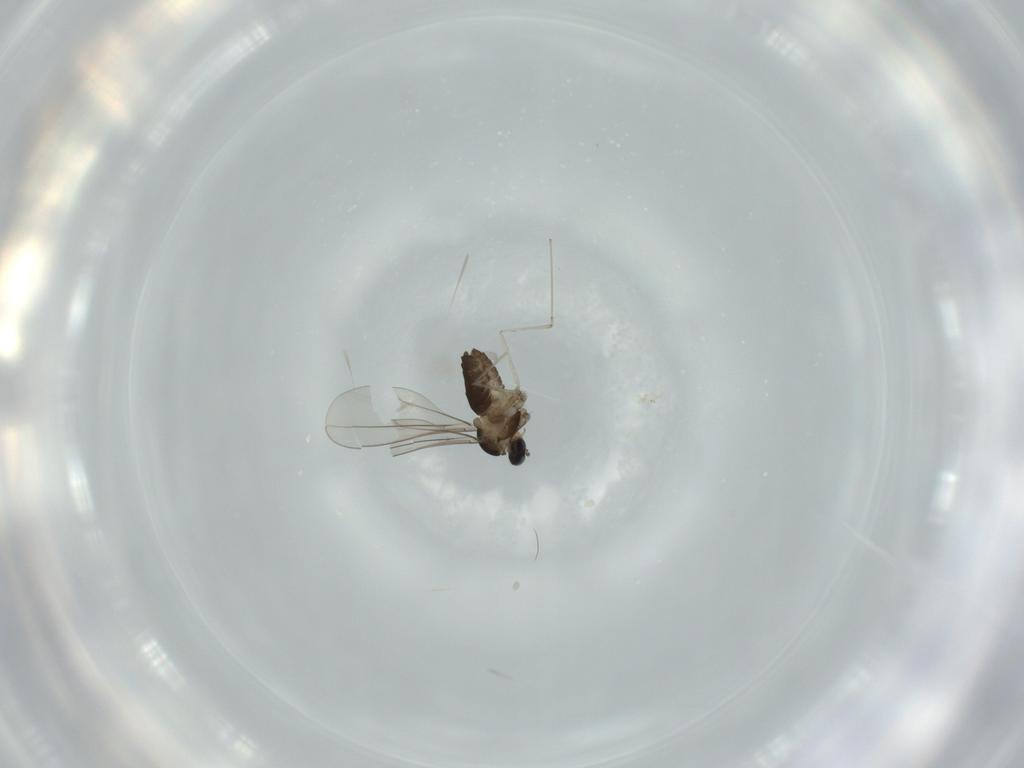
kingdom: Animalia
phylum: Arthropoda
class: Insecta
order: Diptera
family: Cecidomyiidae
